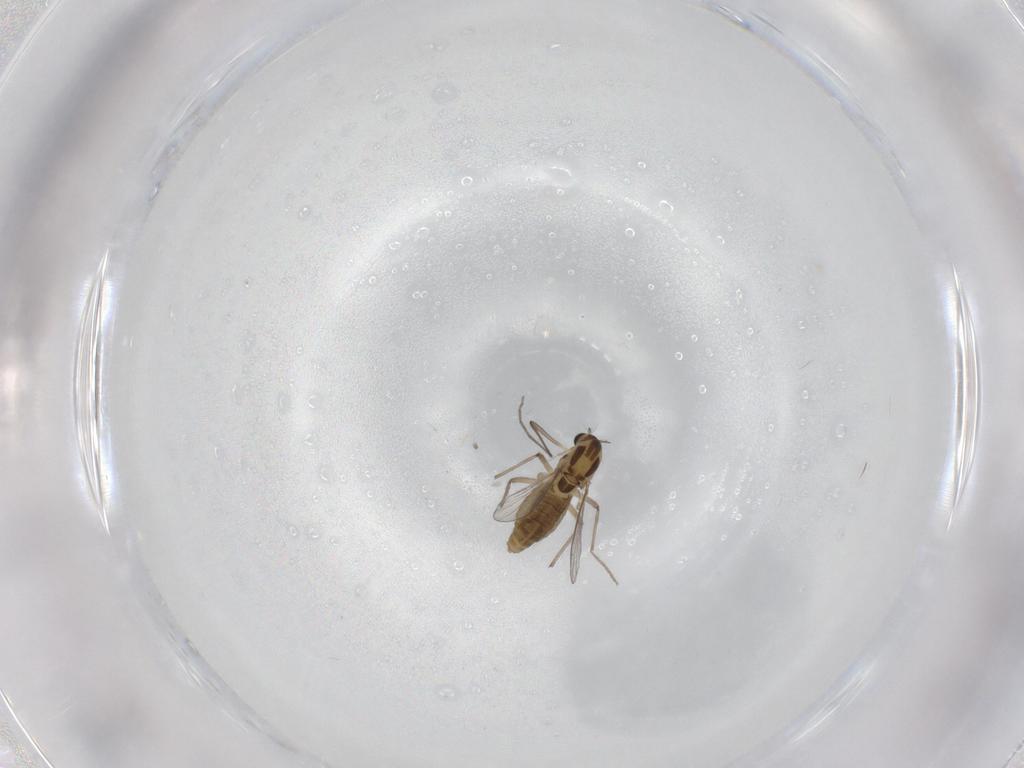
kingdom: Animalia
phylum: Arthropoda
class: Insecta
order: Diptera
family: Chironomidae
